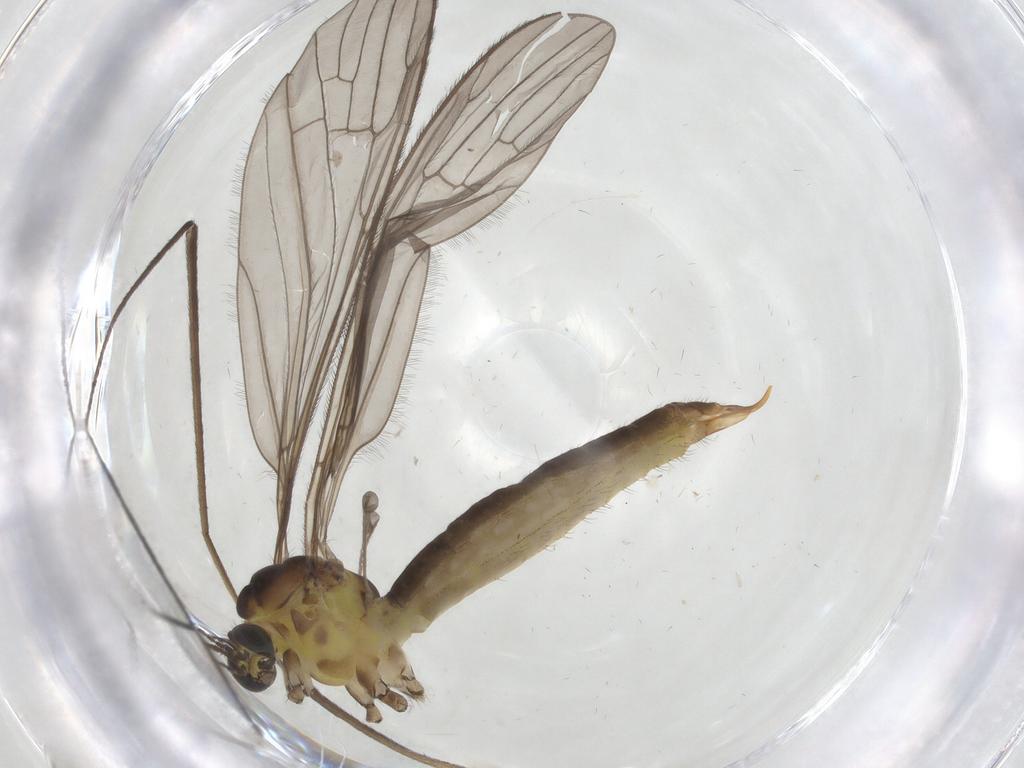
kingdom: Animalia
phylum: Arthropoda
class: Insecta
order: Diptera
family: Limoniidae
